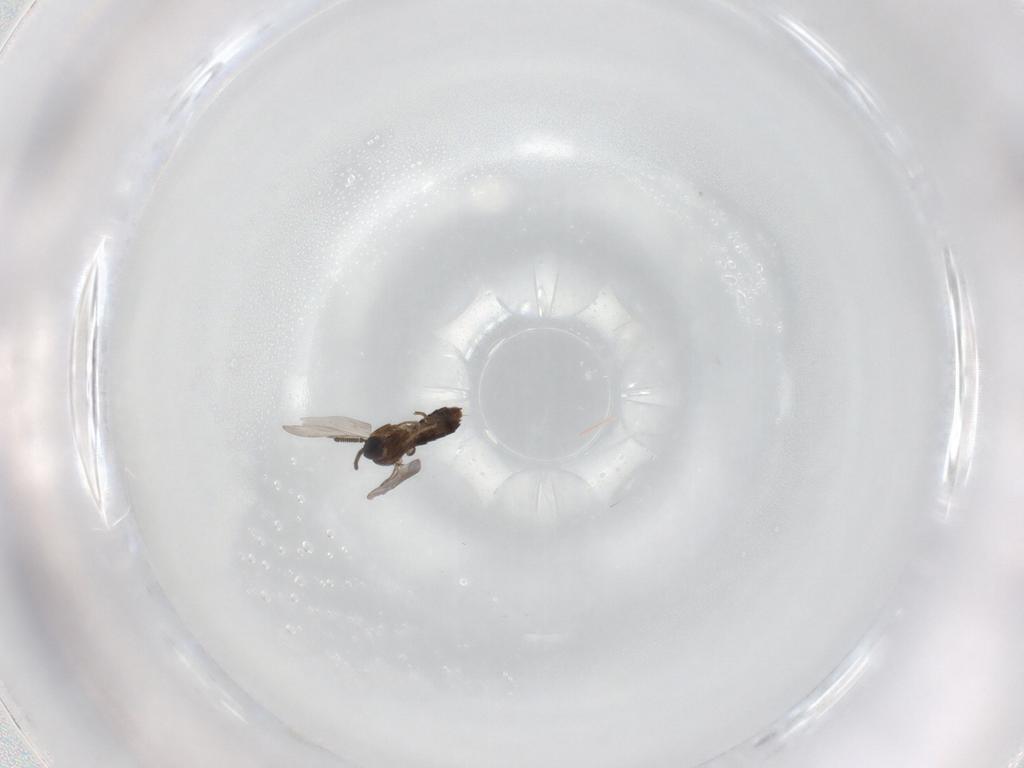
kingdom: Animalia
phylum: Arthropoda
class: Insecta
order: Diptera
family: Scatopsidae
